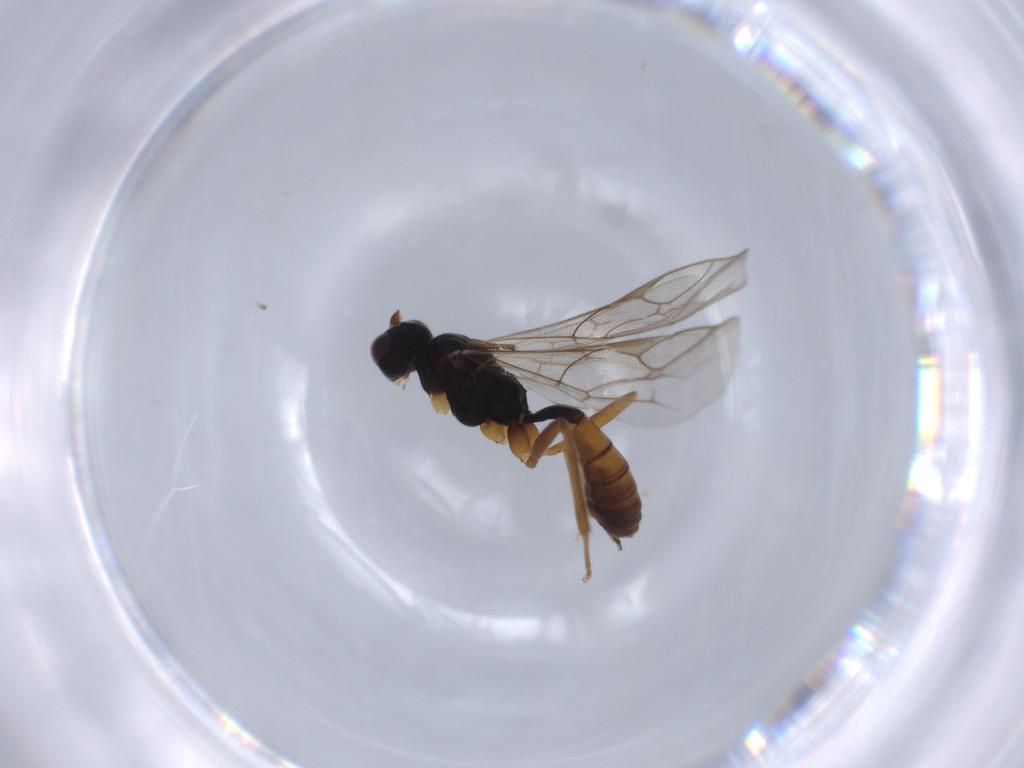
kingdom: Animalia
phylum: Arthropoda
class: Insecta
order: Hymenoptera
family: Ichneumonidae
